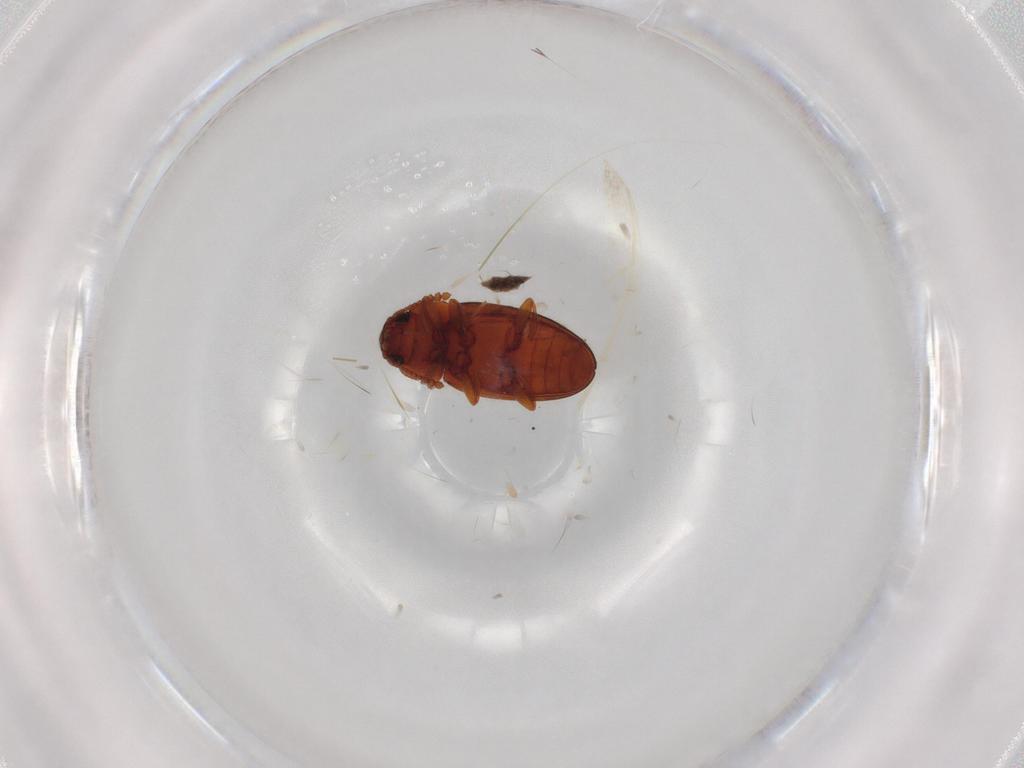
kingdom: Animalia
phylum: Arthropoda
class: Insecta
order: Coleoptera
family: Erotylidae
